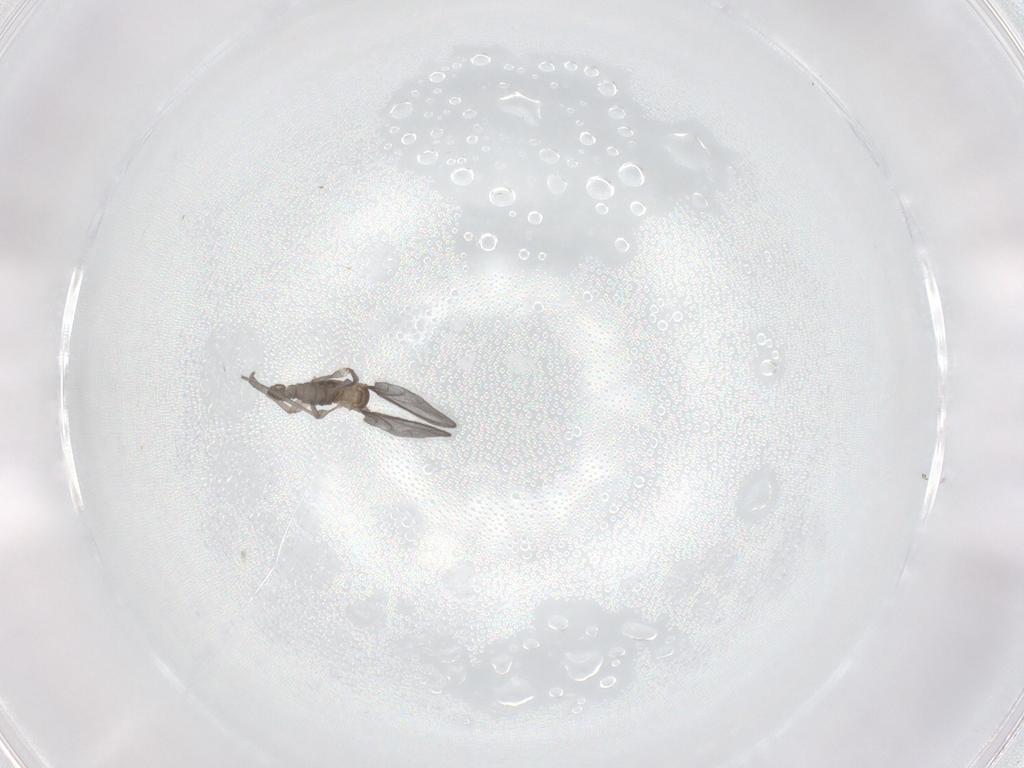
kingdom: Animalia
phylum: Arthropoda
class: Insecta
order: Diptera
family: Sciaridae
